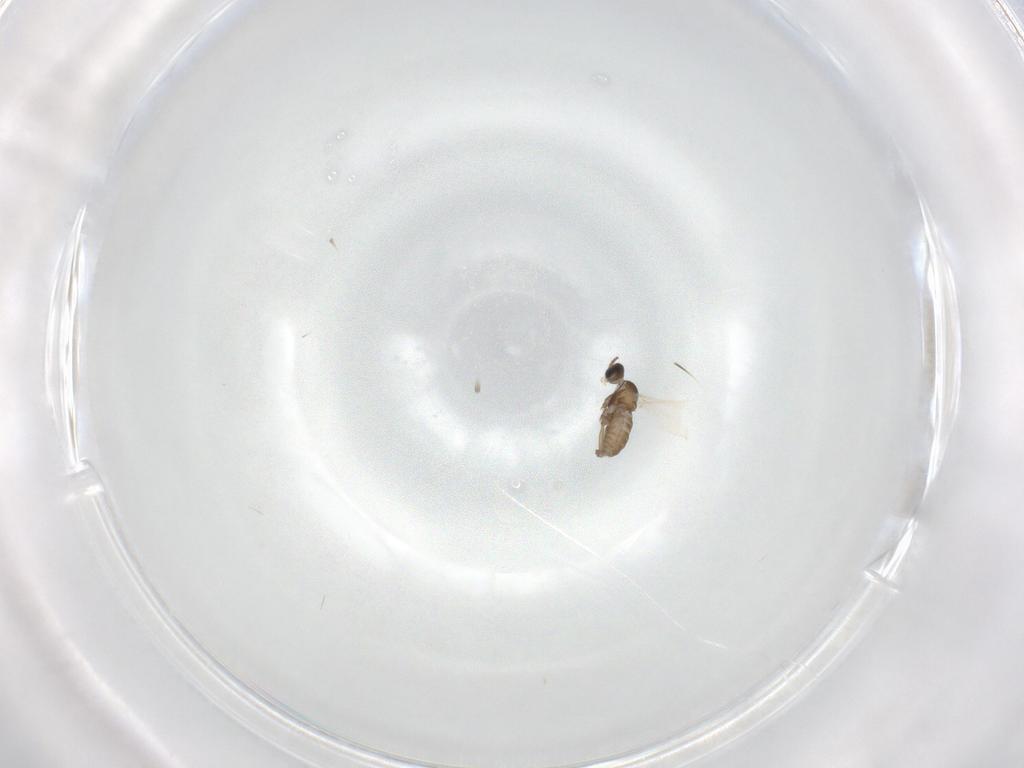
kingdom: Animalia
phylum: Arthropoda
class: Insecta
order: Diptera
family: Cecidomyiidae
